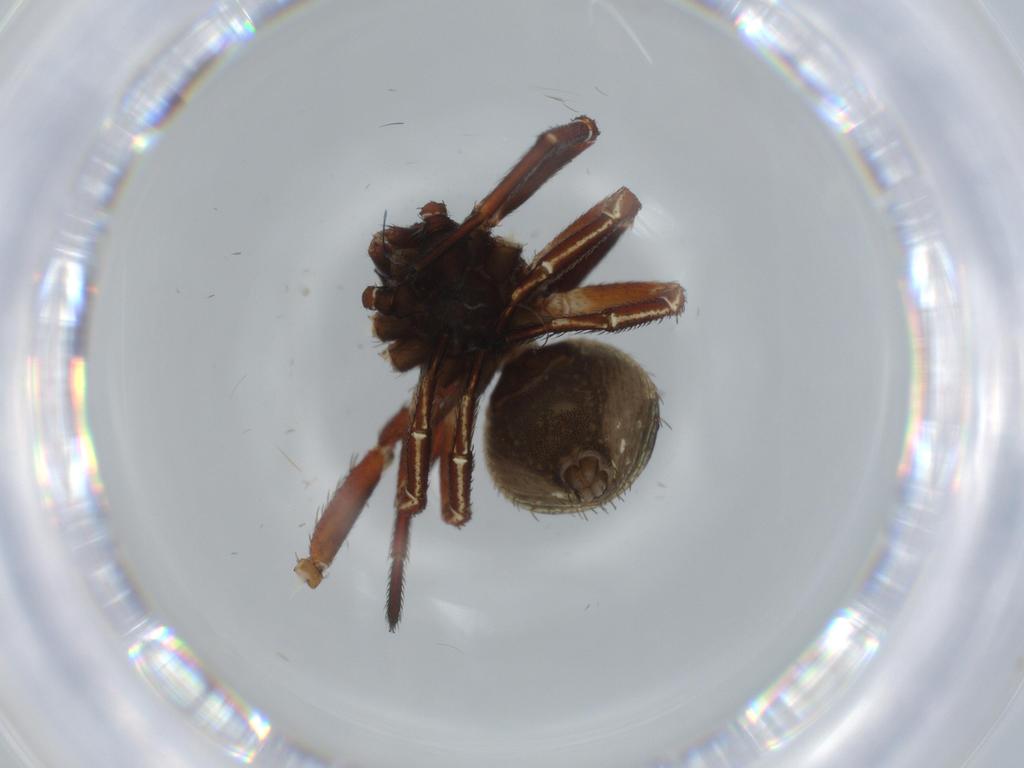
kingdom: Animalia
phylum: Arthropoda
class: Arachnida
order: Araneae
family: Thomisidae
